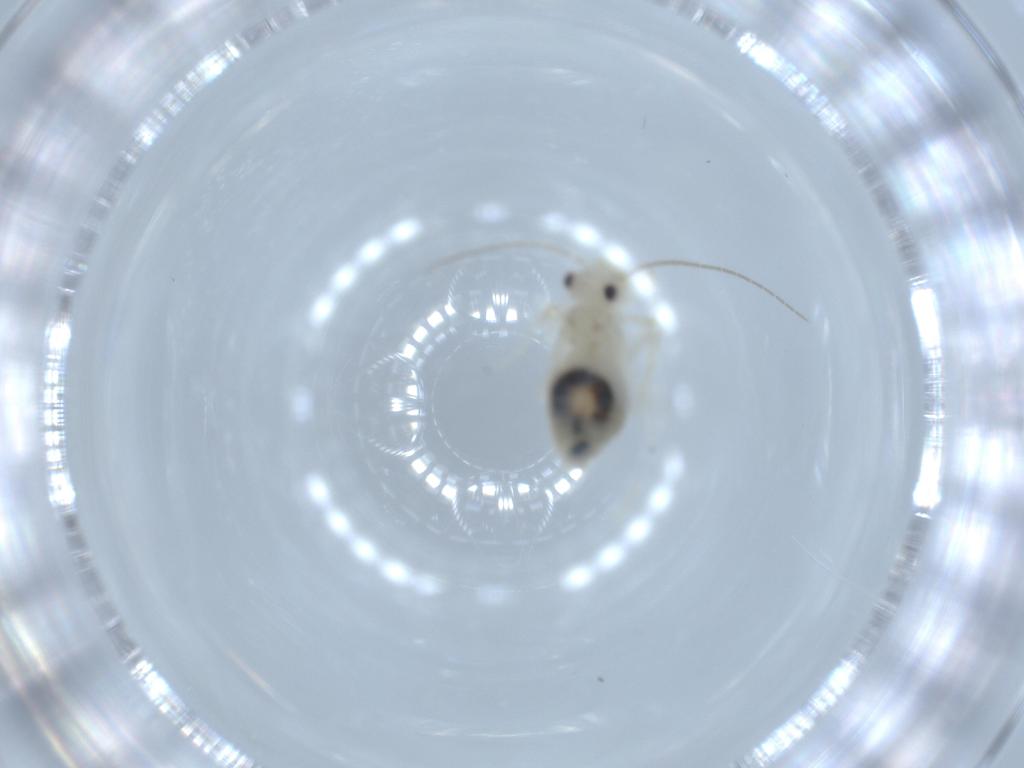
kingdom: Animalia
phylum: Arthropoda
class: Insecta
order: Psocodea
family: Caeciliusidae
